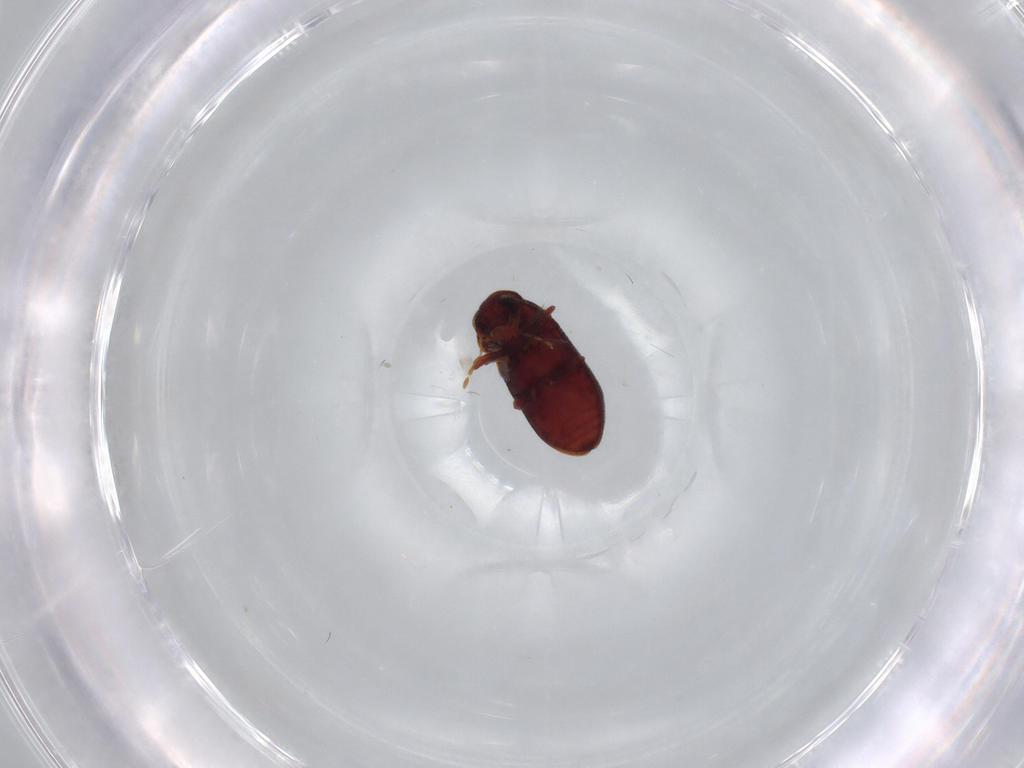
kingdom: Animalia
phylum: Arthropoda
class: Insecta
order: Coleoptera
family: Ptinidae
